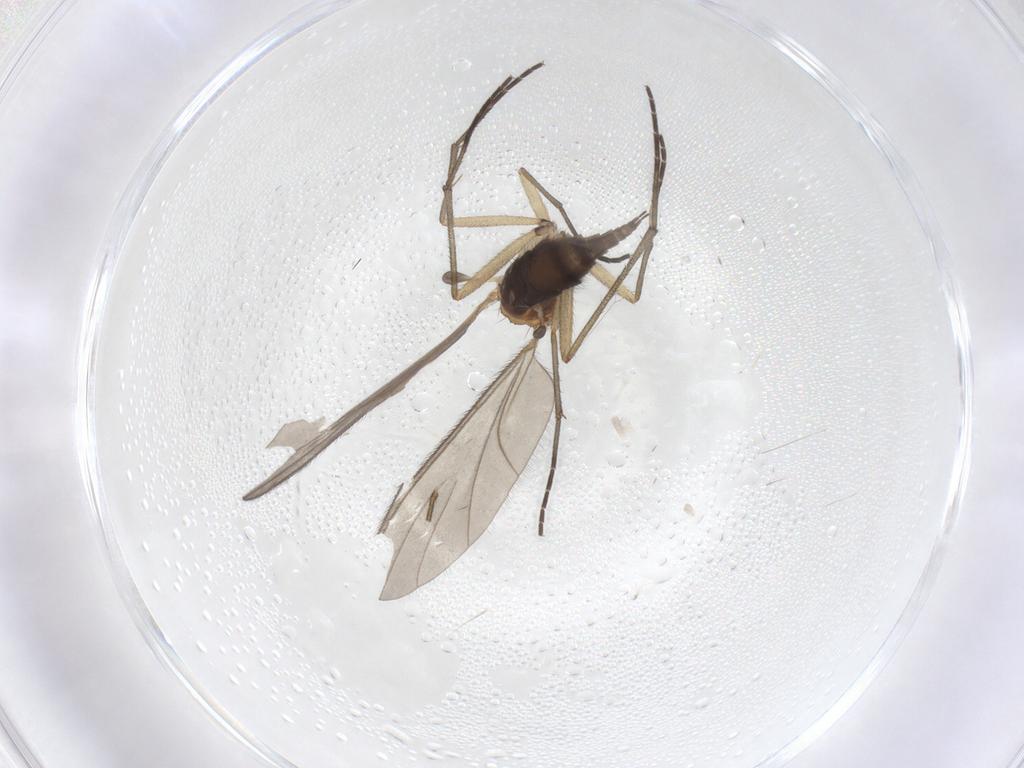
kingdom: Animalia
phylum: Arthropoda
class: Insecta
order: Diptera
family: Sciaridae
